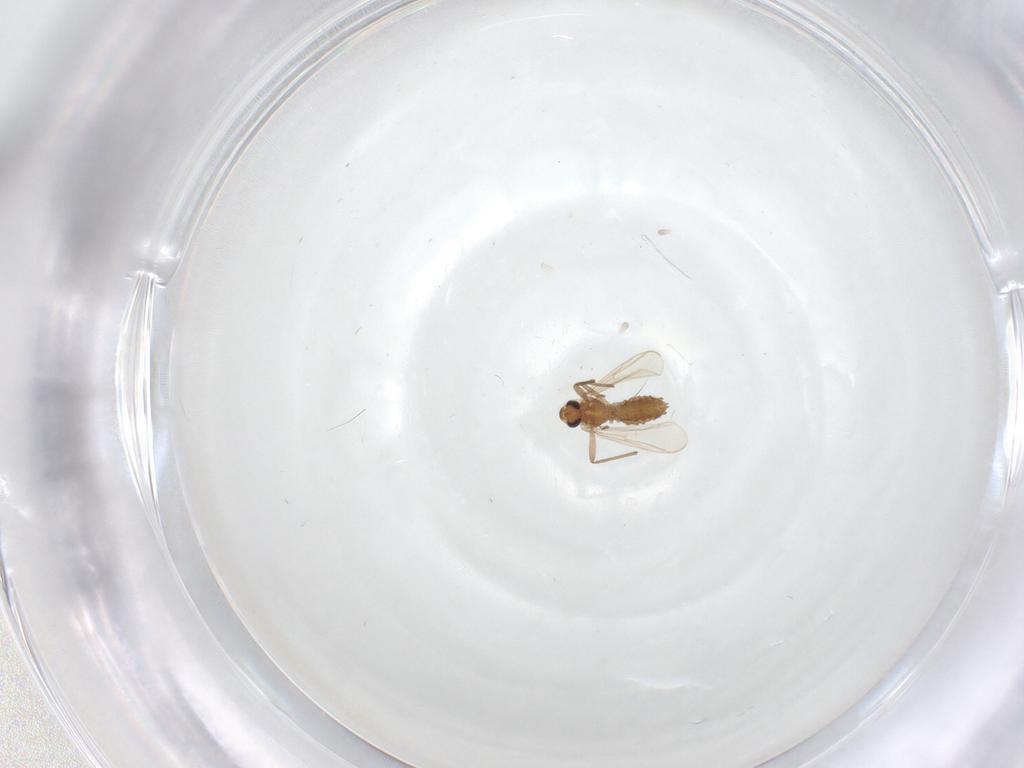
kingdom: Animalia
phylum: Arthropoda
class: Insecta
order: Diptera
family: Chironomidae
